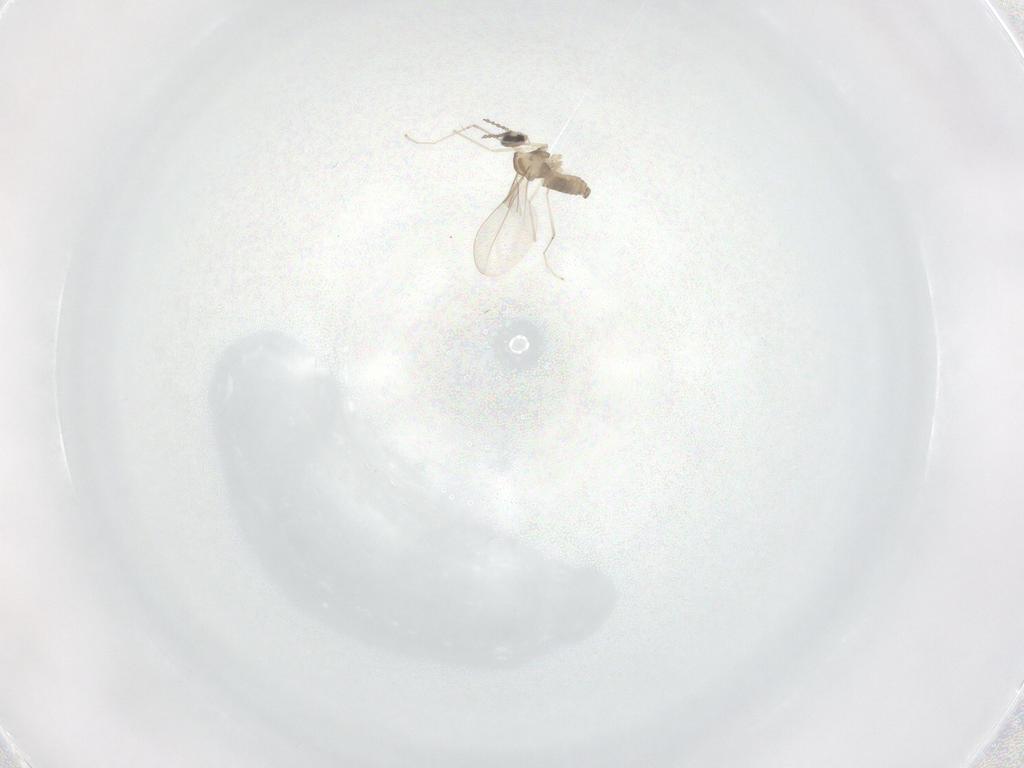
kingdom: Animalia
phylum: Arthropoda
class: Insecta
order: Diptera
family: Cecidomyiidae
